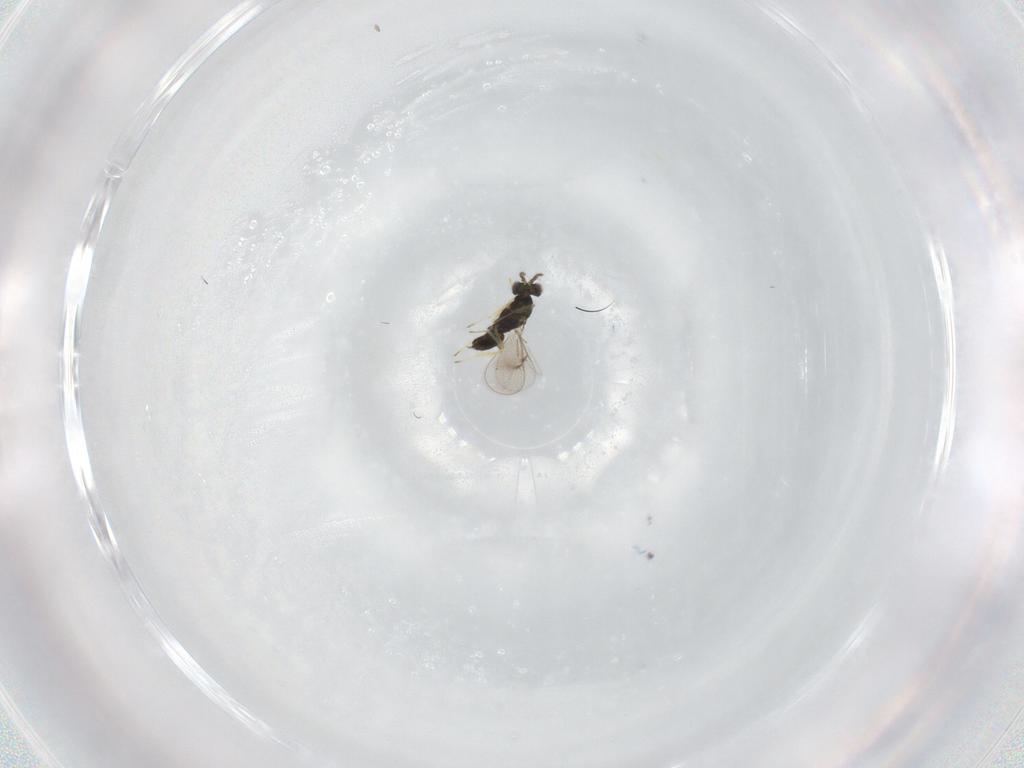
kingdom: Animalia
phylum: Arthropoda
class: Insecta
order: Hymenoptera
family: Eulophidae
